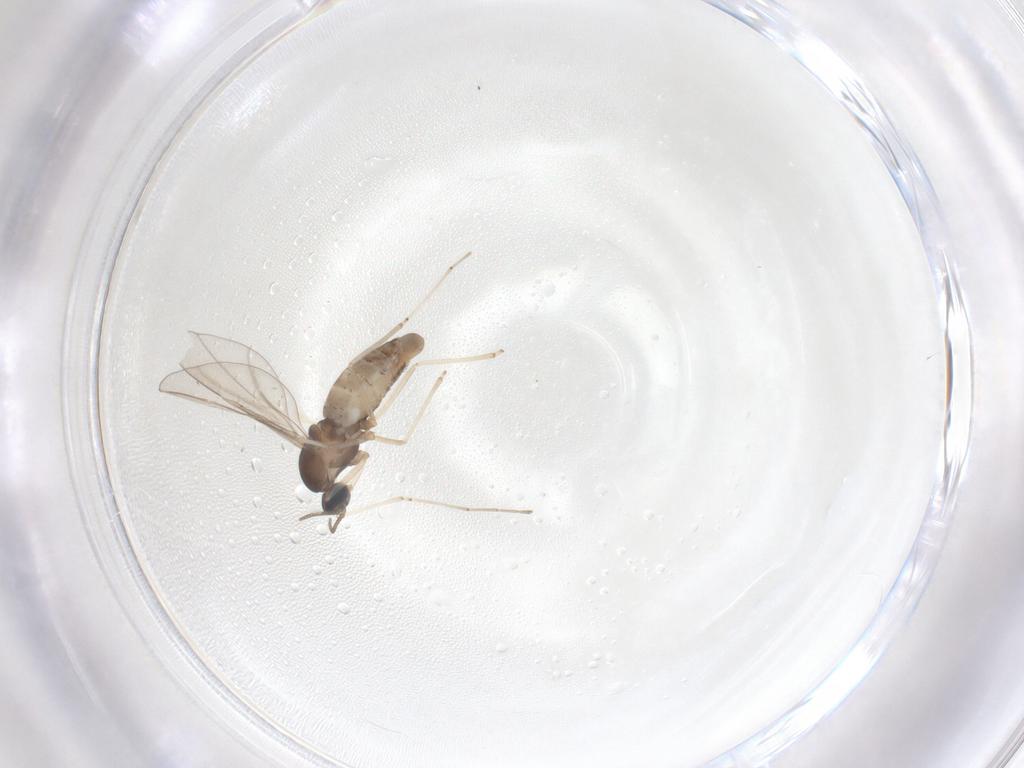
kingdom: Animalia
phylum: Arthropoda
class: Insecta
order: Diptera
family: Cecidomyiidae
